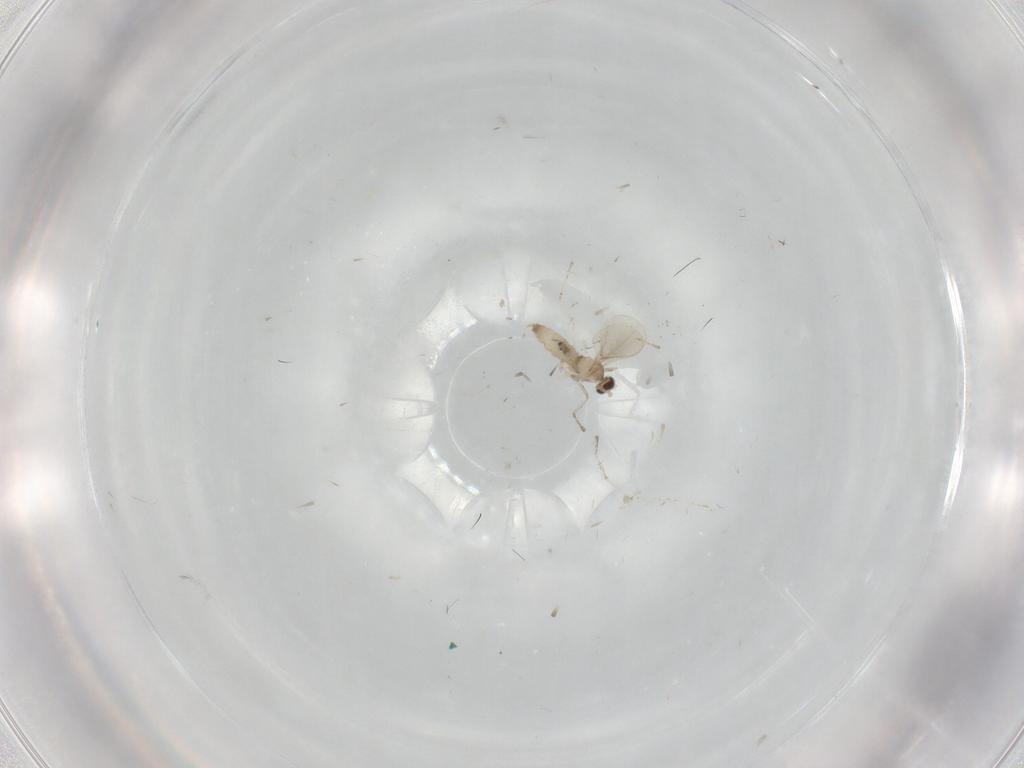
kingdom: Animalia
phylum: Arthropoda
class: Insecta
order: Diptera
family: Cecidomyiidae
